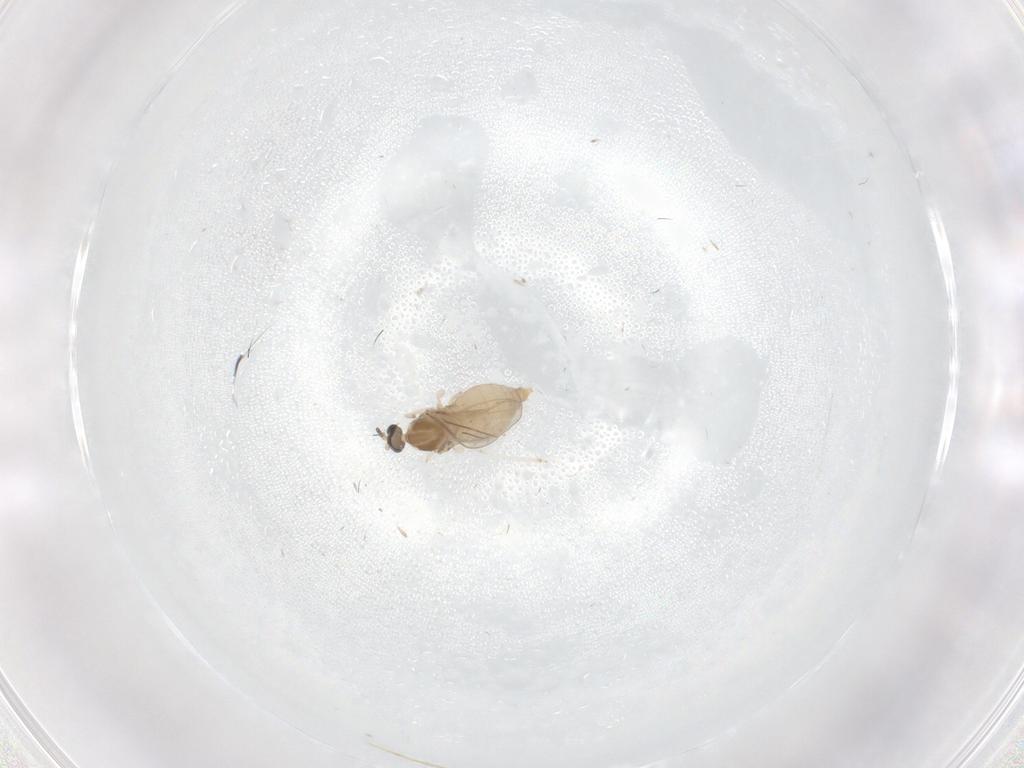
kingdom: Animalia
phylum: Arthropoda
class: Insecta
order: Diptera
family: Cecidomyiidae
